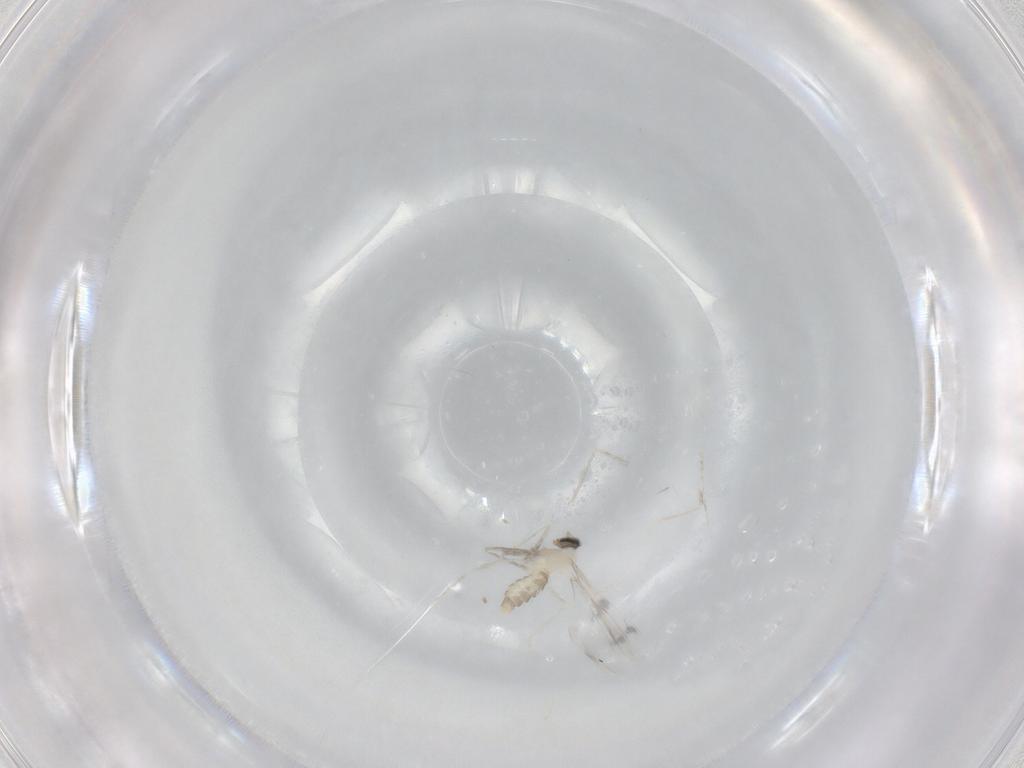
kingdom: Animalia
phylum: Arthropoda
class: Insecta
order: Diptera
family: Cecidomyiidae
